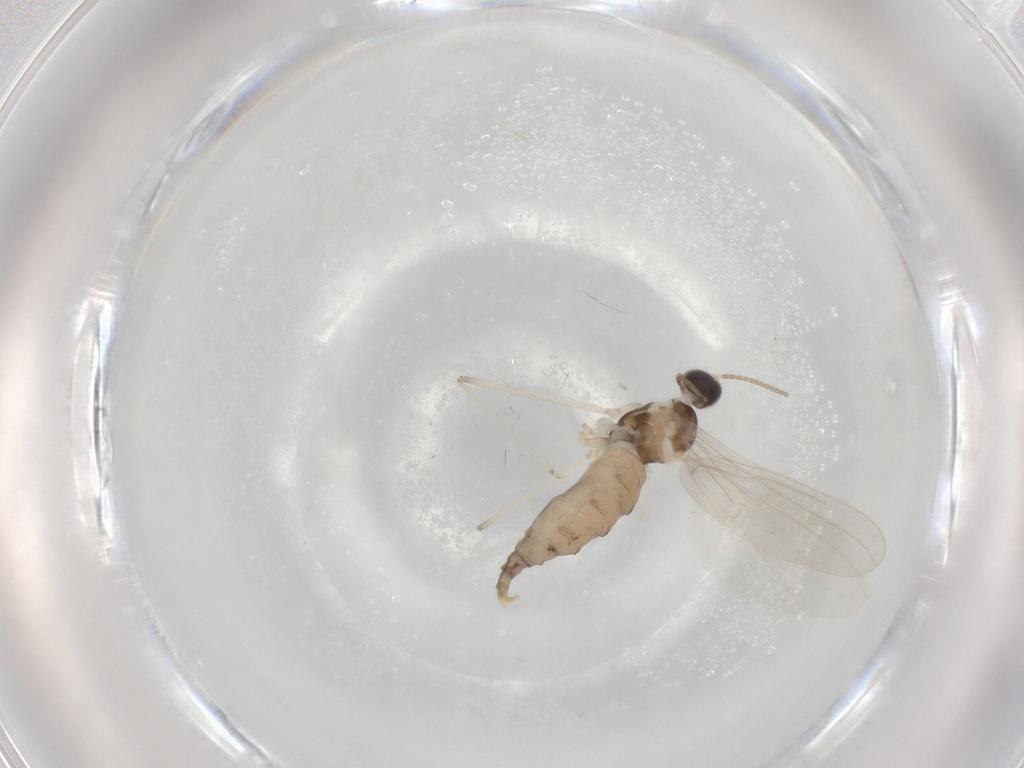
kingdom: Animalia
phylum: Arthropoda
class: Insecta
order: Diptera
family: Cecidomyiidae
